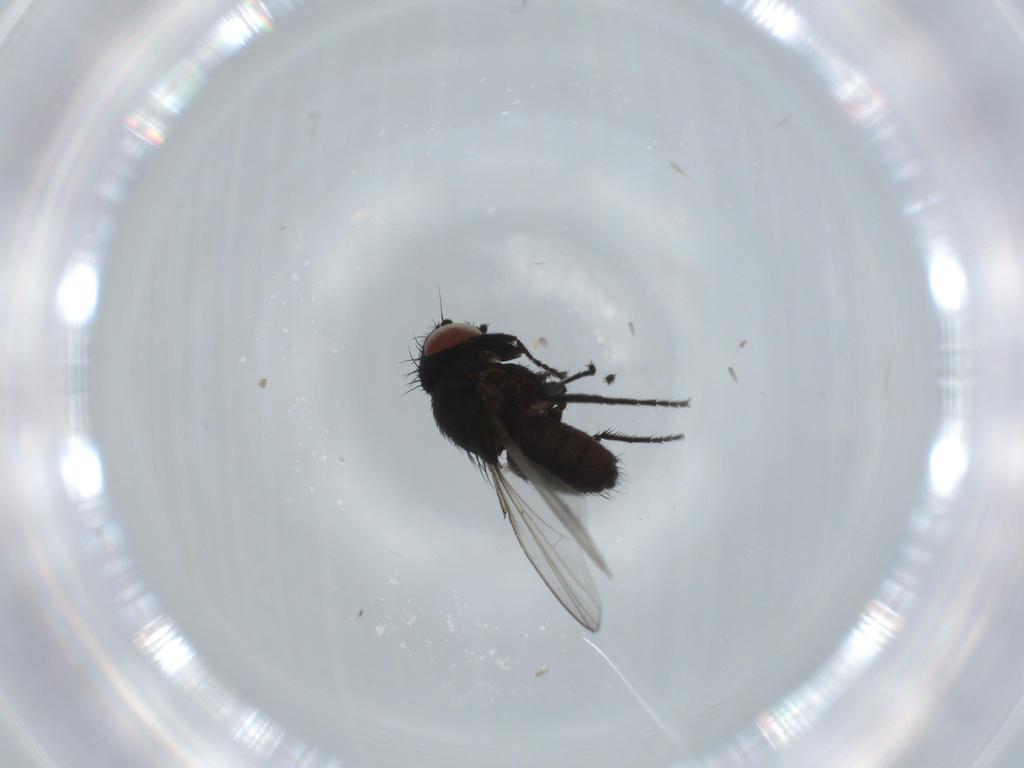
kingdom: Animalia
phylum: Arthropoda
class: Insecta
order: Diptera
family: Milichiidae
